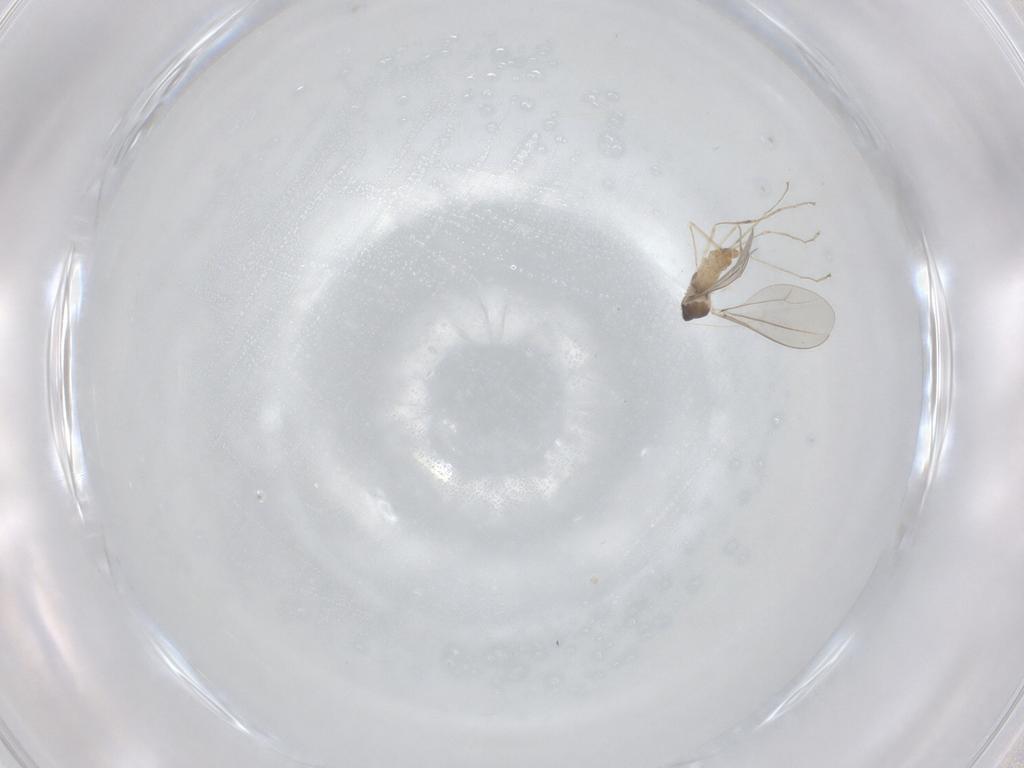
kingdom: Animalia
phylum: Arthropoda
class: Insecta
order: Diptera
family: Cecidomyiidae
